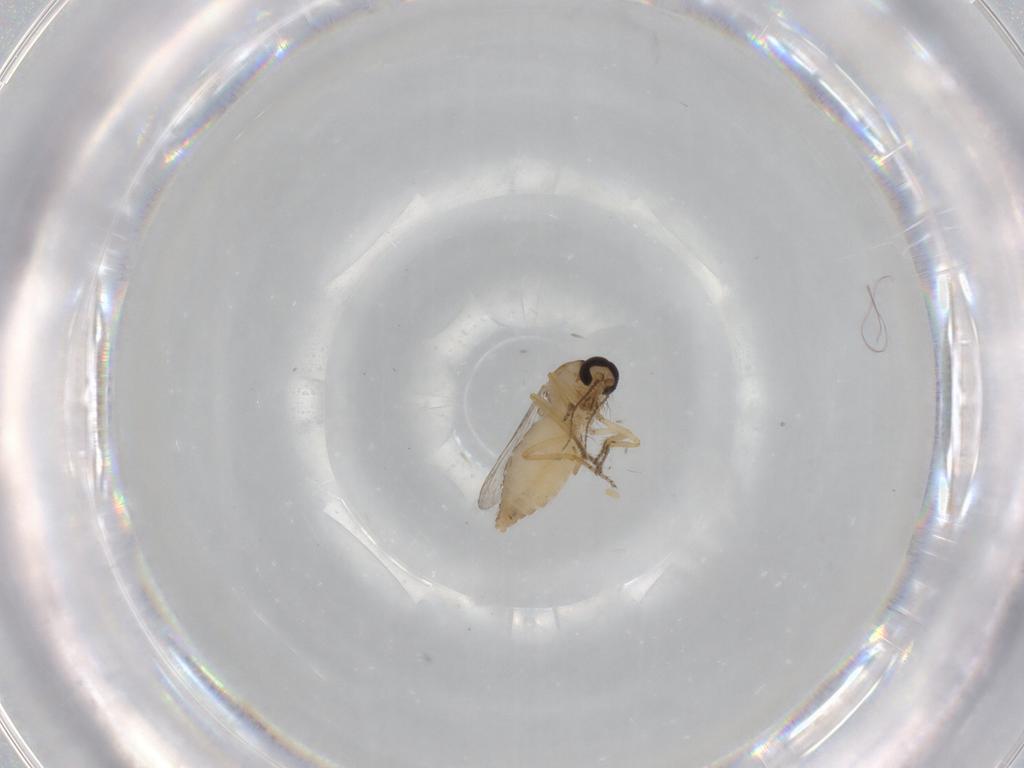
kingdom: Animalia
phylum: Arthropoda
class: Insecta
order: Diptera
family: Ceratopogonidae
